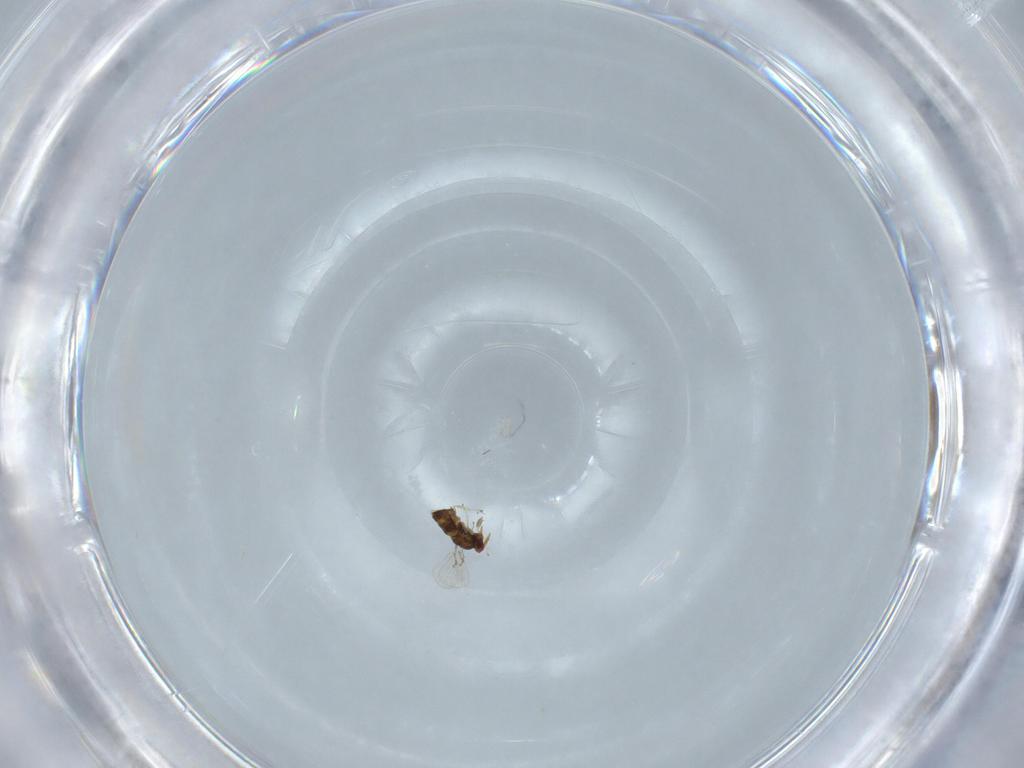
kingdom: Animalia
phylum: Arthropoda
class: Insecta
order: Hymenoptera
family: Trichogrammatidae
